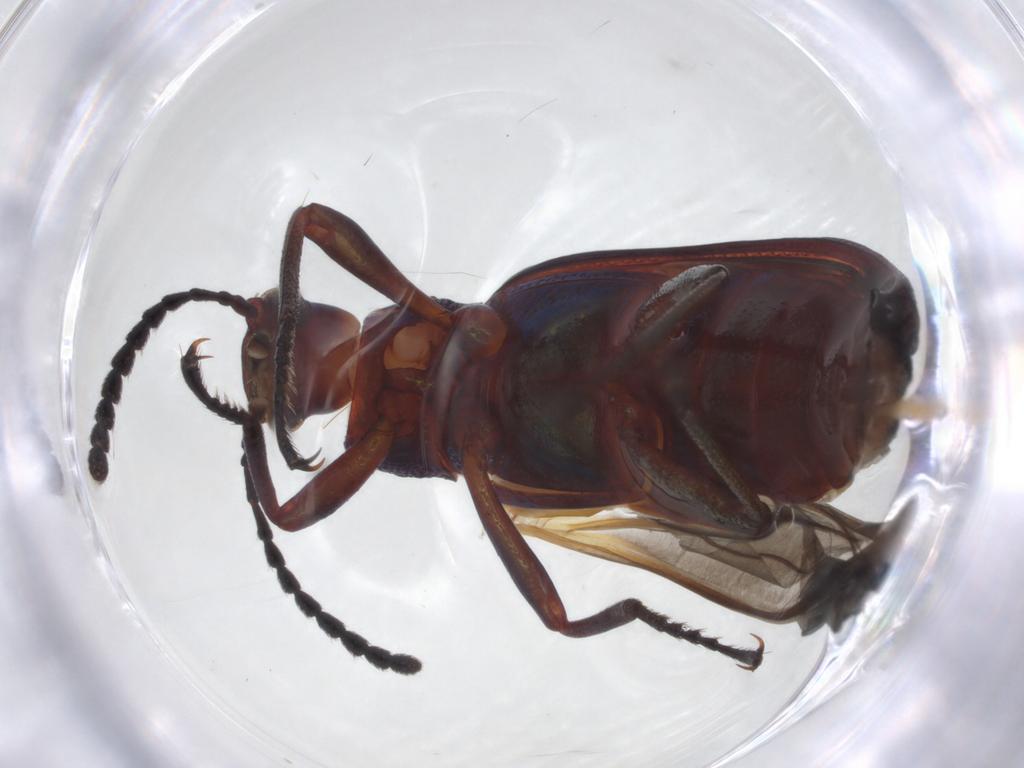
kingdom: Animalia
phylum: Arthropoda
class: Insecta
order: Coleoptera
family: Tenebrionidae
